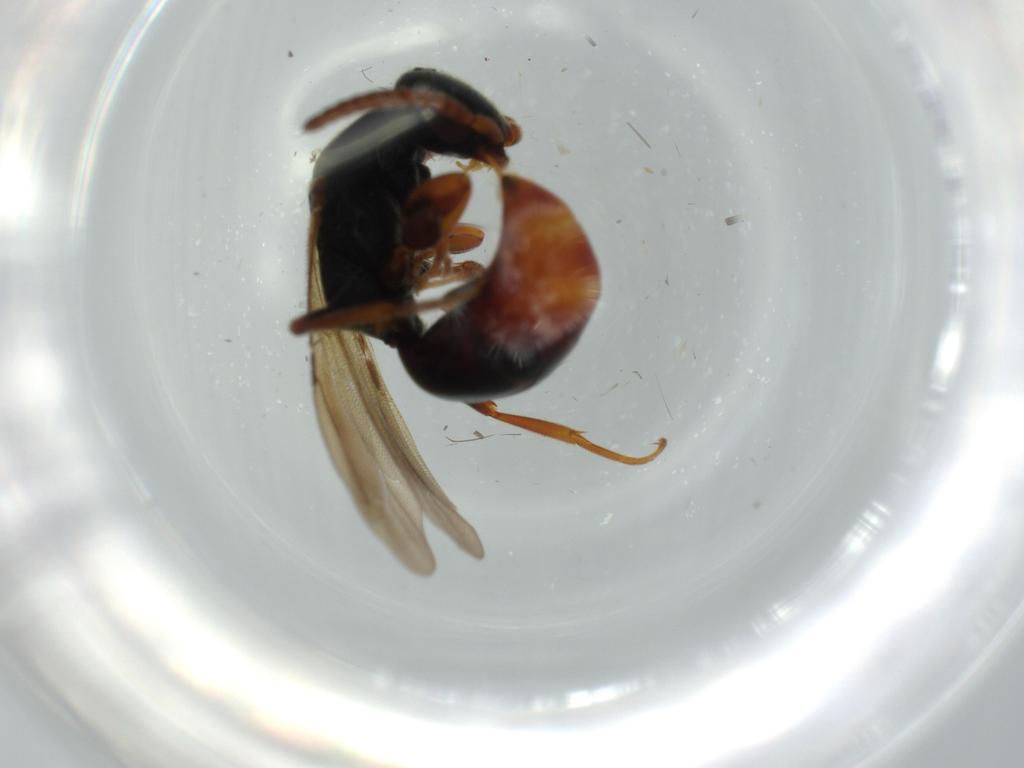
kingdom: Animalia
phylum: Arthropoda
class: Insecta
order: Hymenoptera
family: Bethylidae
